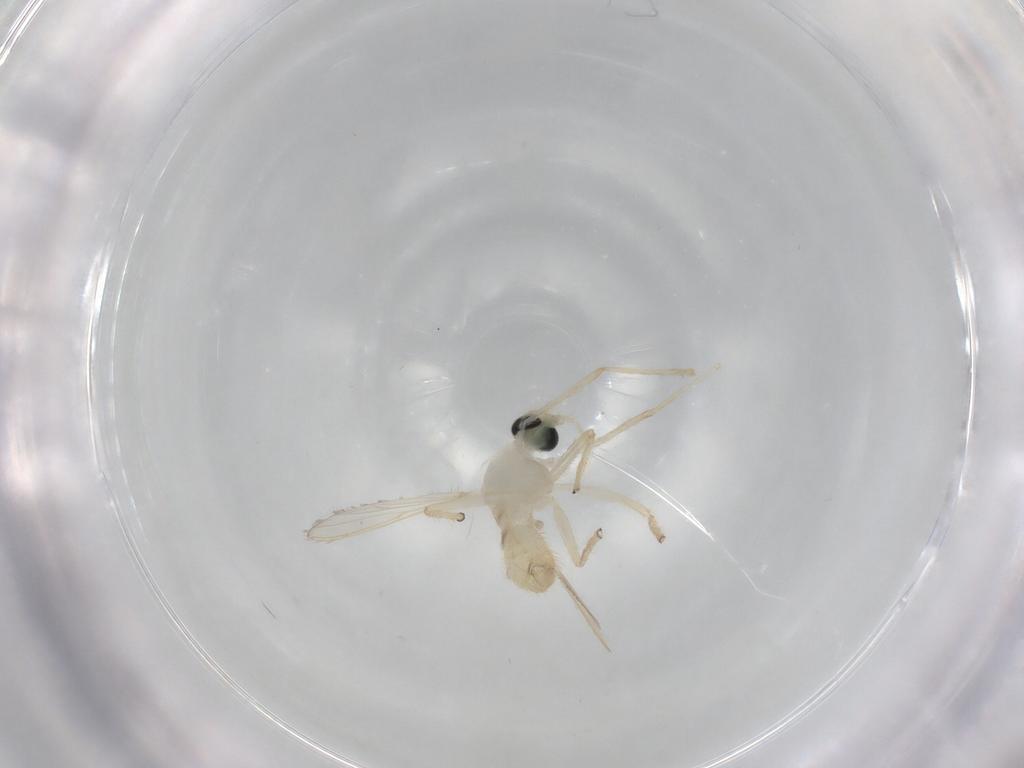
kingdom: Animalia
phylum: Arthropoda
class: Insecta
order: Diptera
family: Chironomidae
